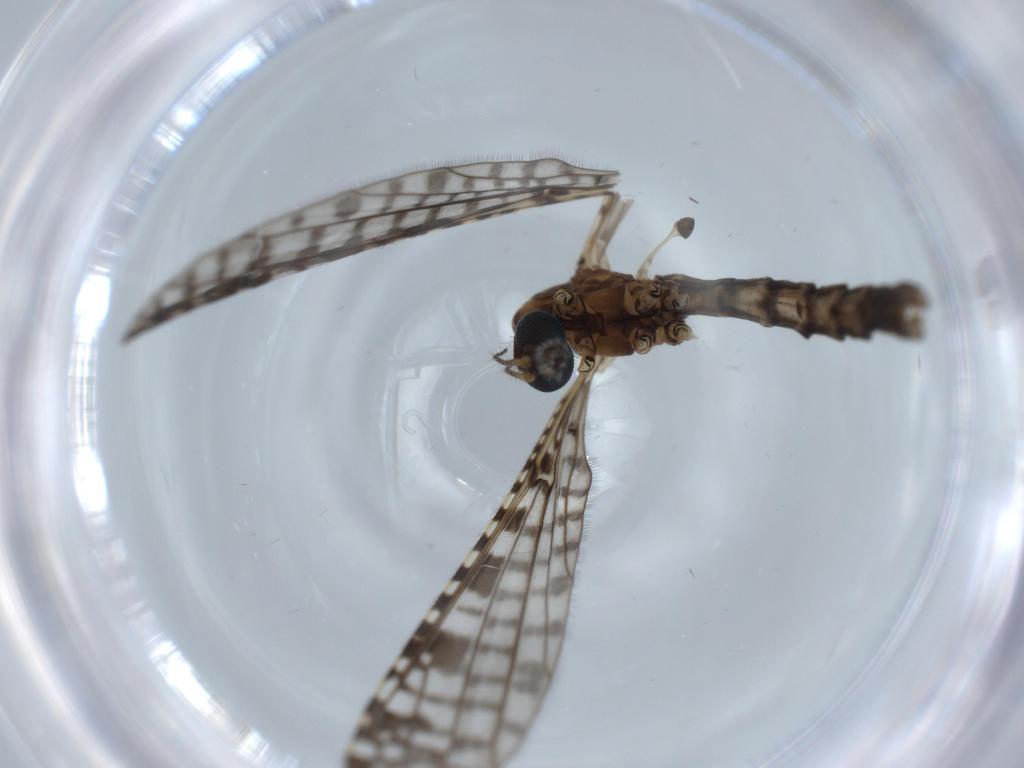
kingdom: Animalia
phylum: Arthropoda
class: Insecta
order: Diptera
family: Limoniidae
